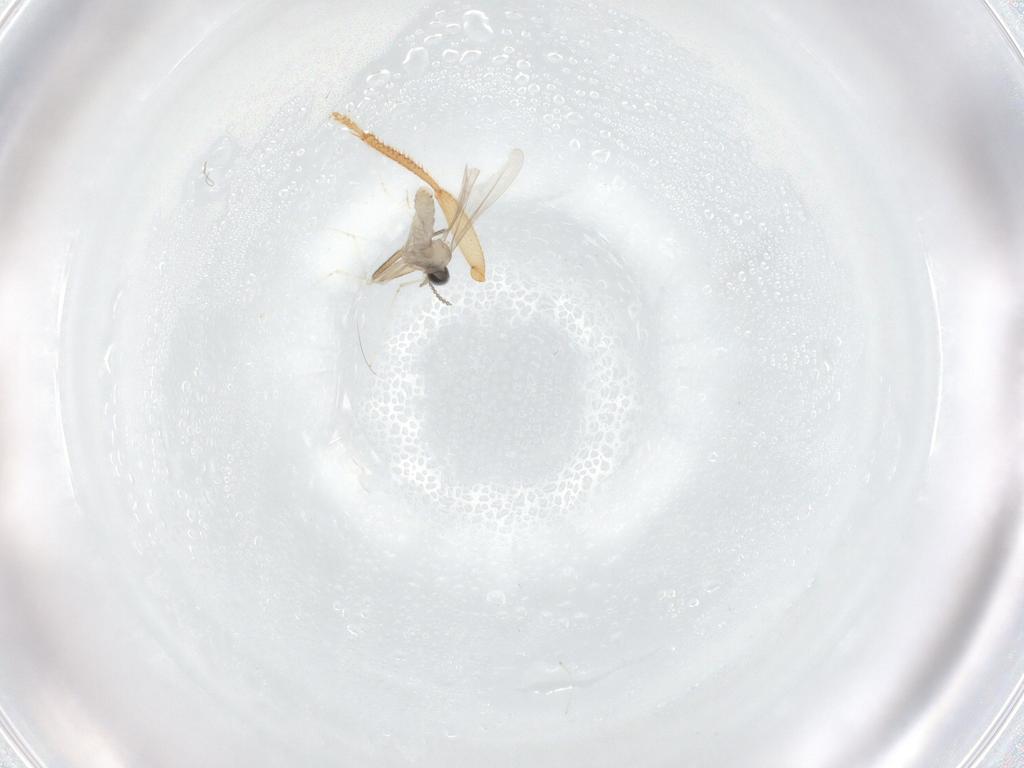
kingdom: Animalia
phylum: Arthropoda
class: Insecta
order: Diptera
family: Cecidomyiidae
